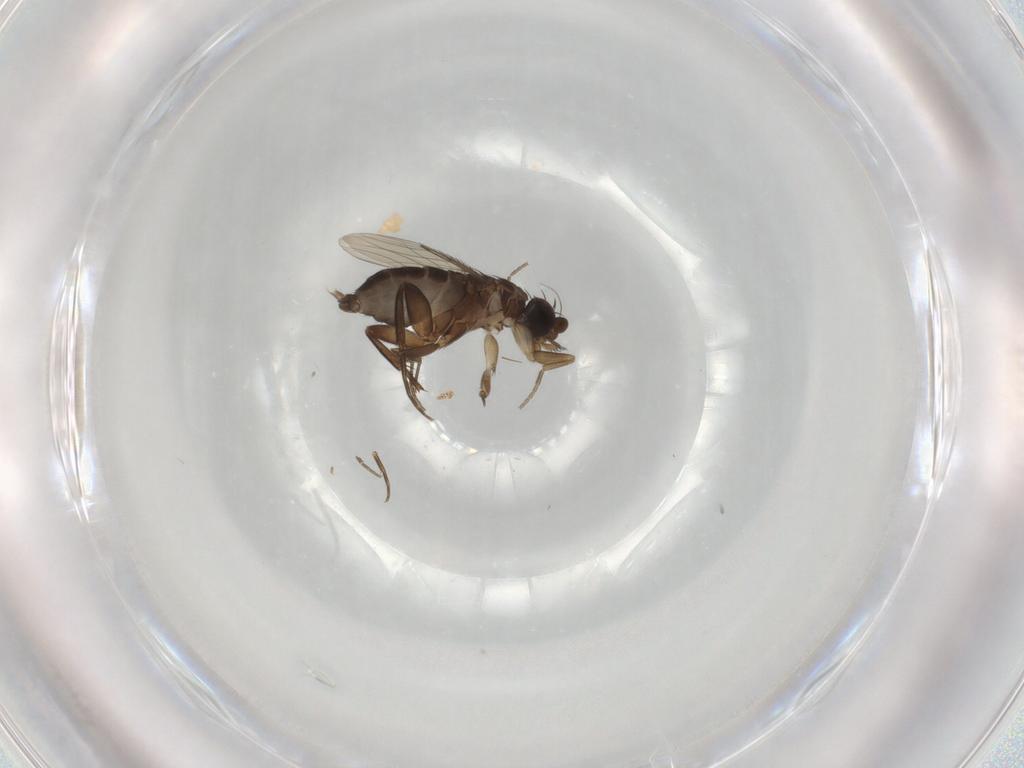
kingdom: Animalia
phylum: Arthropoda
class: Insecta
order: Diptera
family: Phoridae
